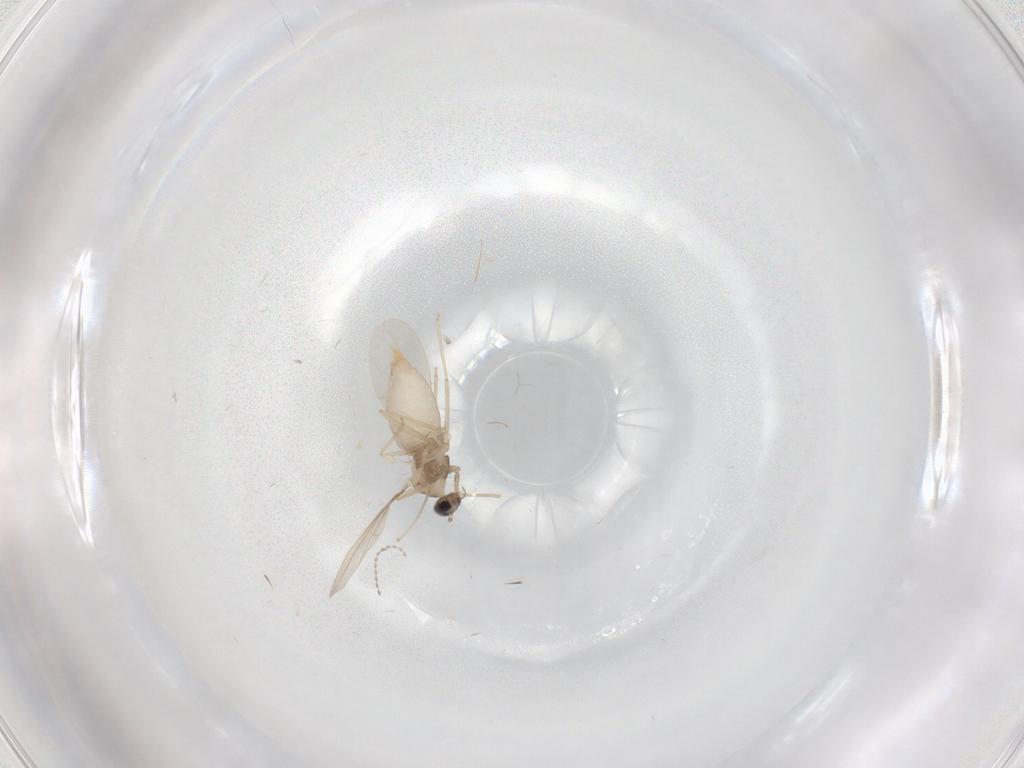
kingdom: Animalia
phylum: Arthropoda
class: Insecta
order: Diptera
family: Cecidomyiidae
